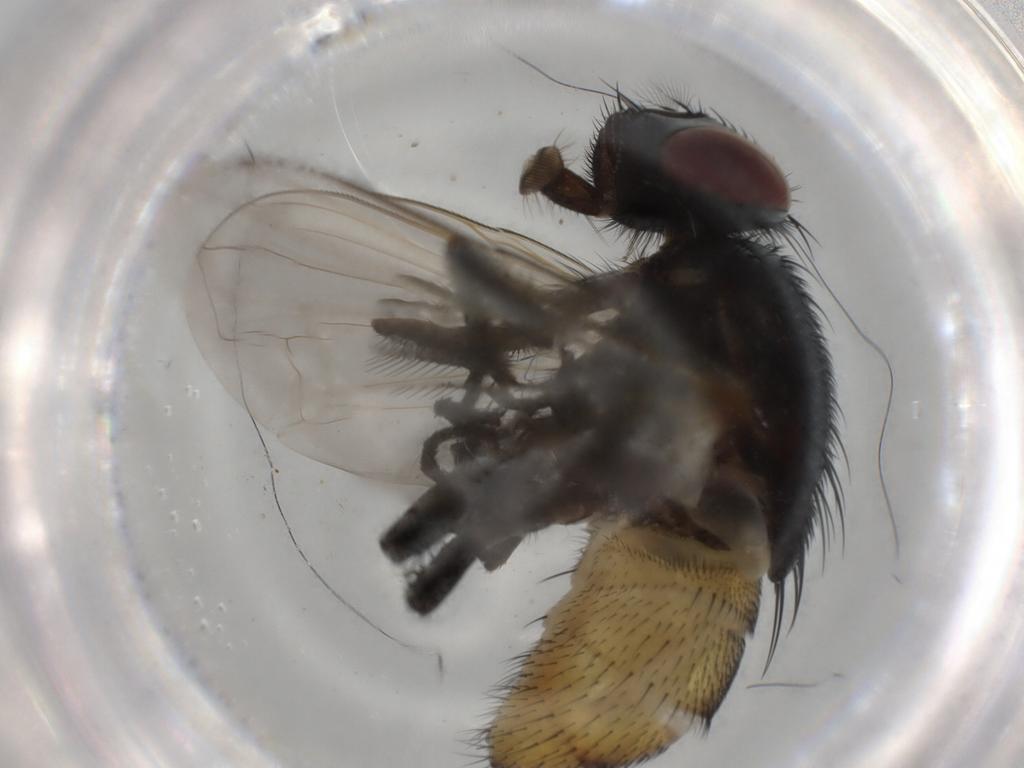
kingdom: Animalia
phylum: Arthropoda
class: Insecta
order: Diptera
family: Muscidae
